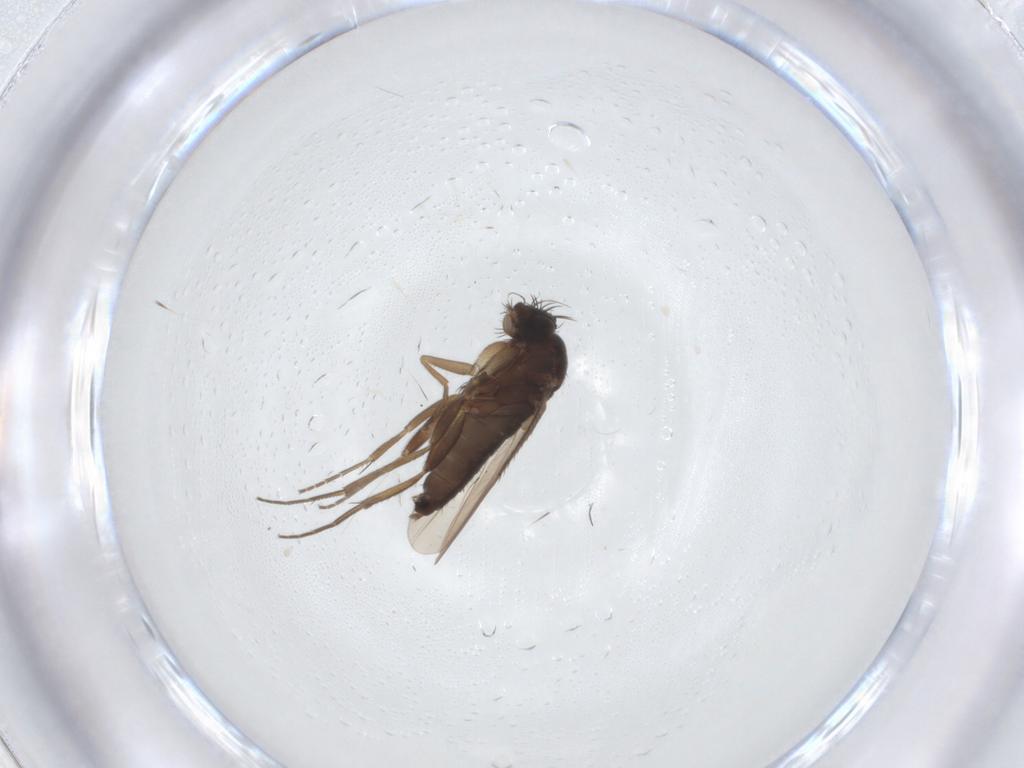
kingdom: Animalia
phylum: Arthropoda
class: Insecta
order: Diptera
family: Phoridae
